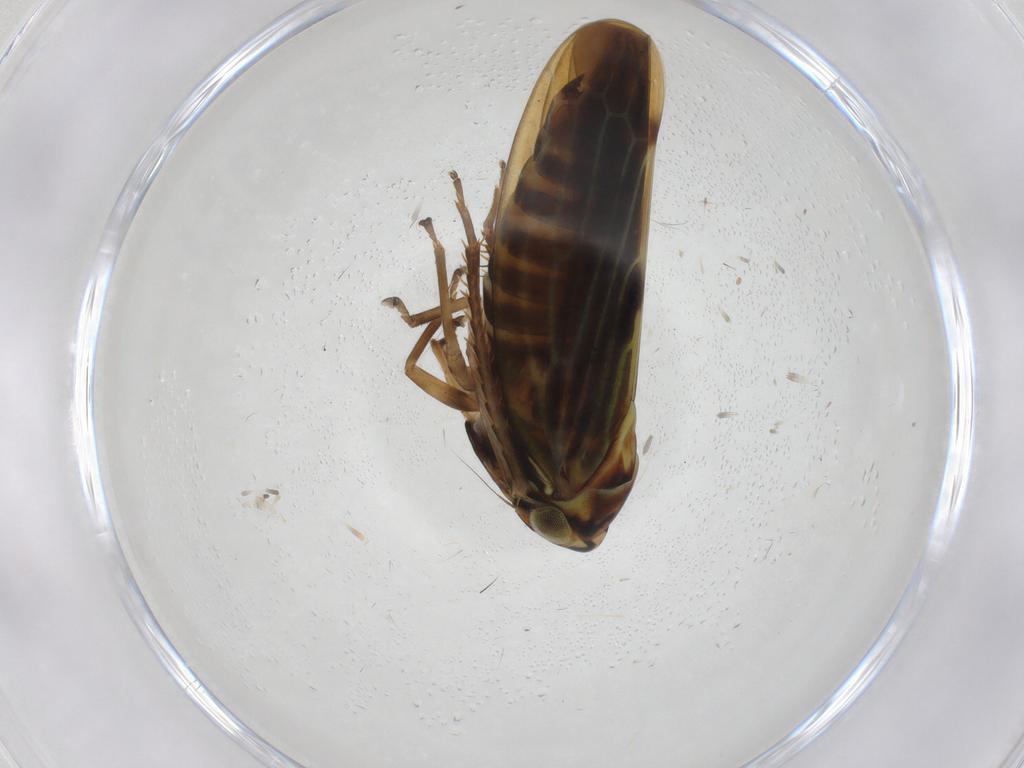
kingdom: Animalia
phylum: Arthropoda
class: Insecta
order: Hemiptera
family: Cicadellidae
